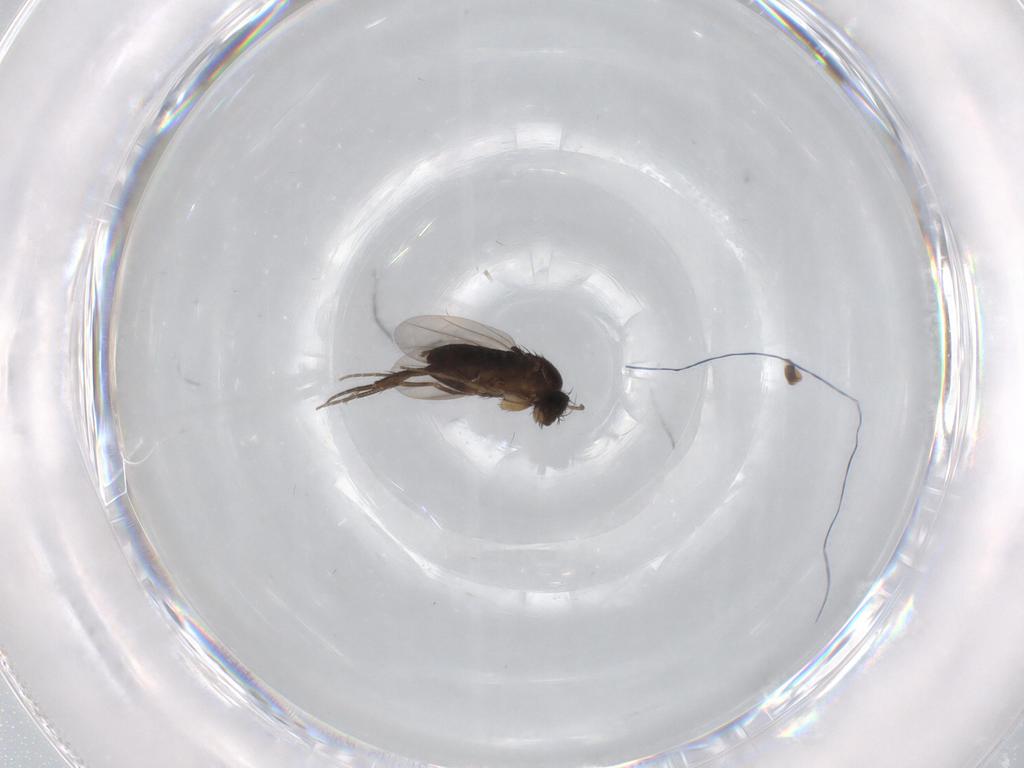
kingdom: Animalia
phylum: Arthropoda
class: Insecta
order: Diptera
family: Phoridae
